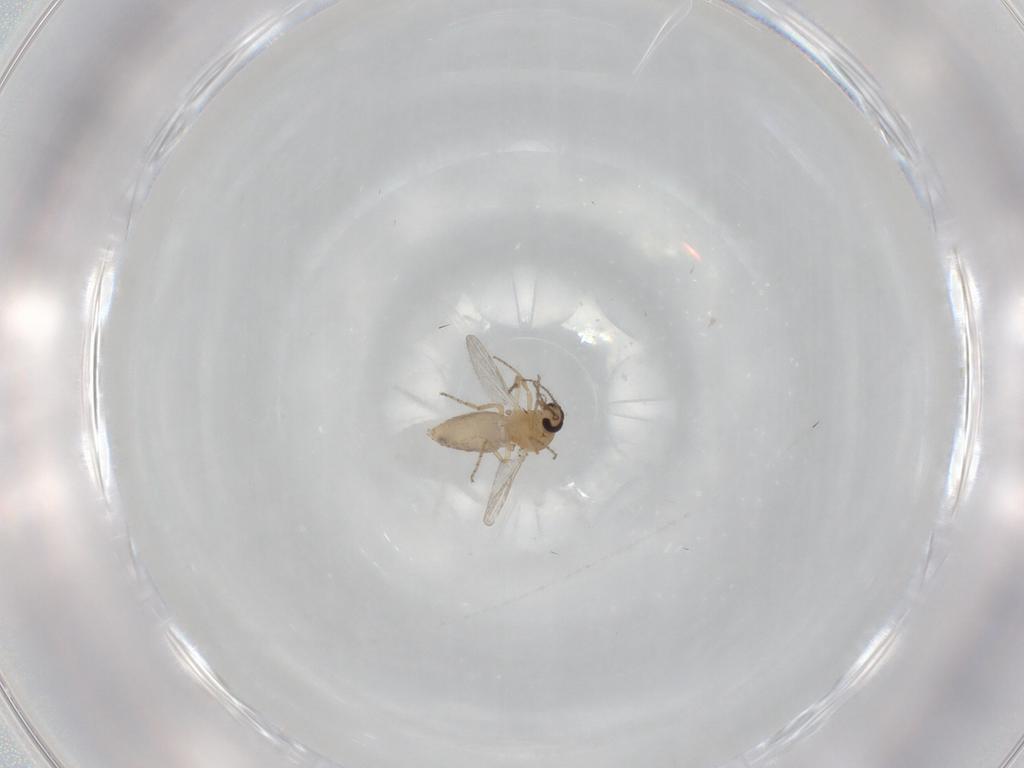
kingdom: Animalia
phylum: Arthropoda
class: Insecta
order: Diptera
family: Ceratopogonidae
